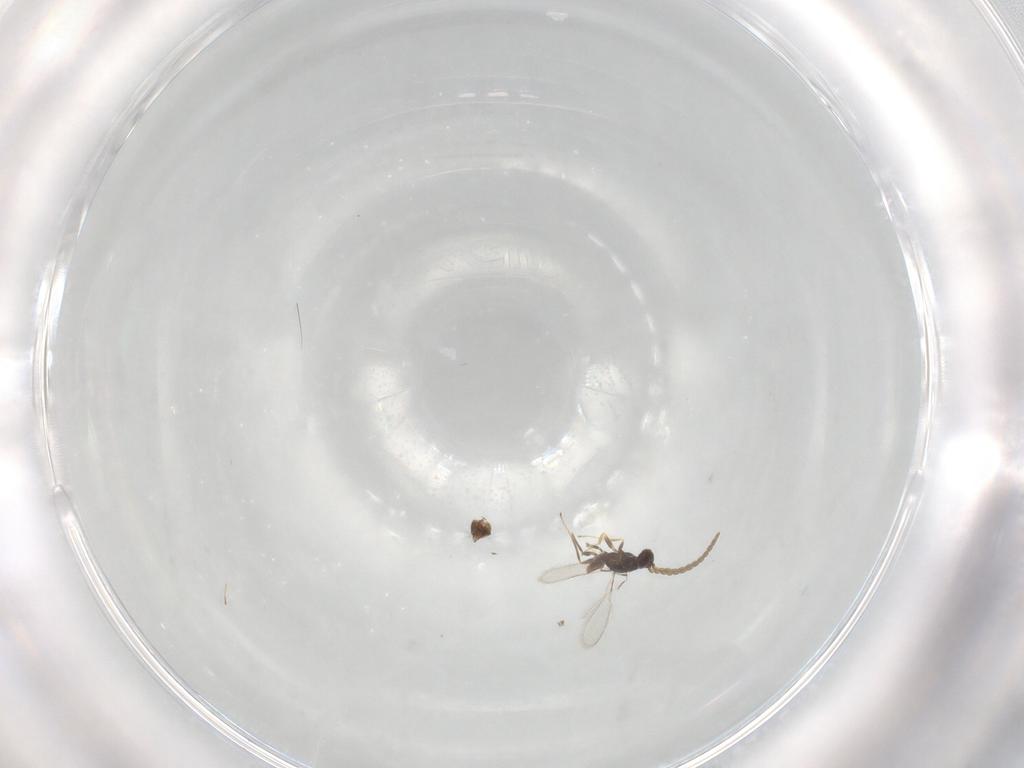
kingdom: Animalia
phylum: Arthropoda
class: Insecta
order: Hymenoptera
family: Mymaridae
